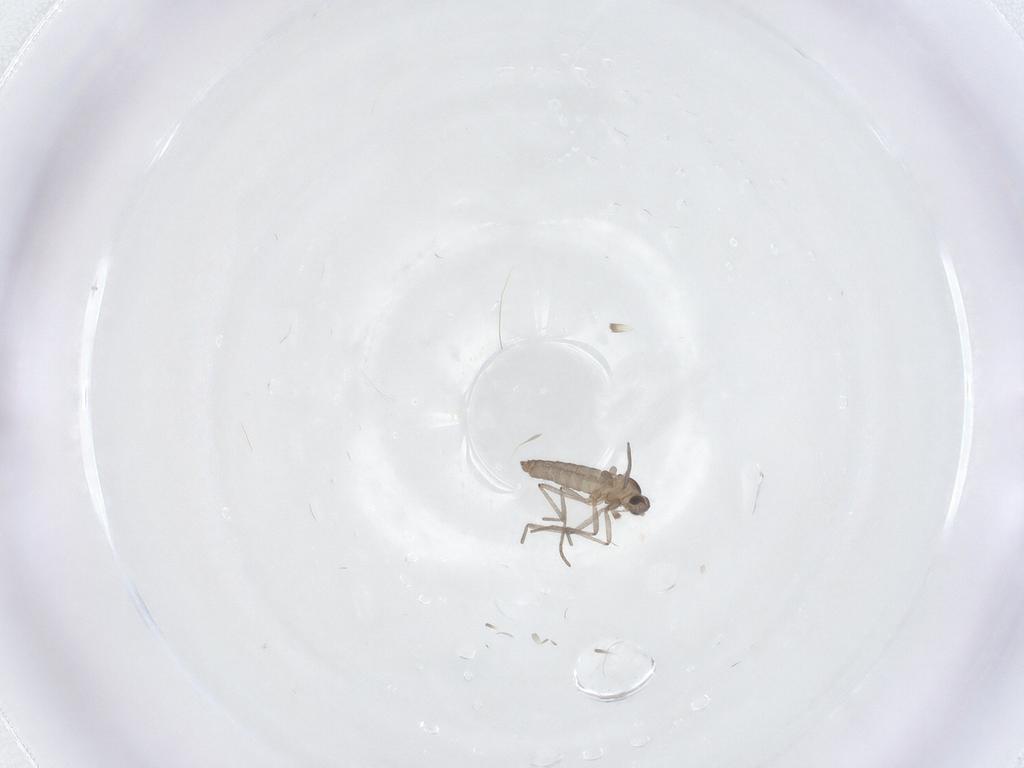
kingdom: Animalia
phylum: Arthropoda
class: Insecta
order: Diptera
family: Cecidomyiidae
